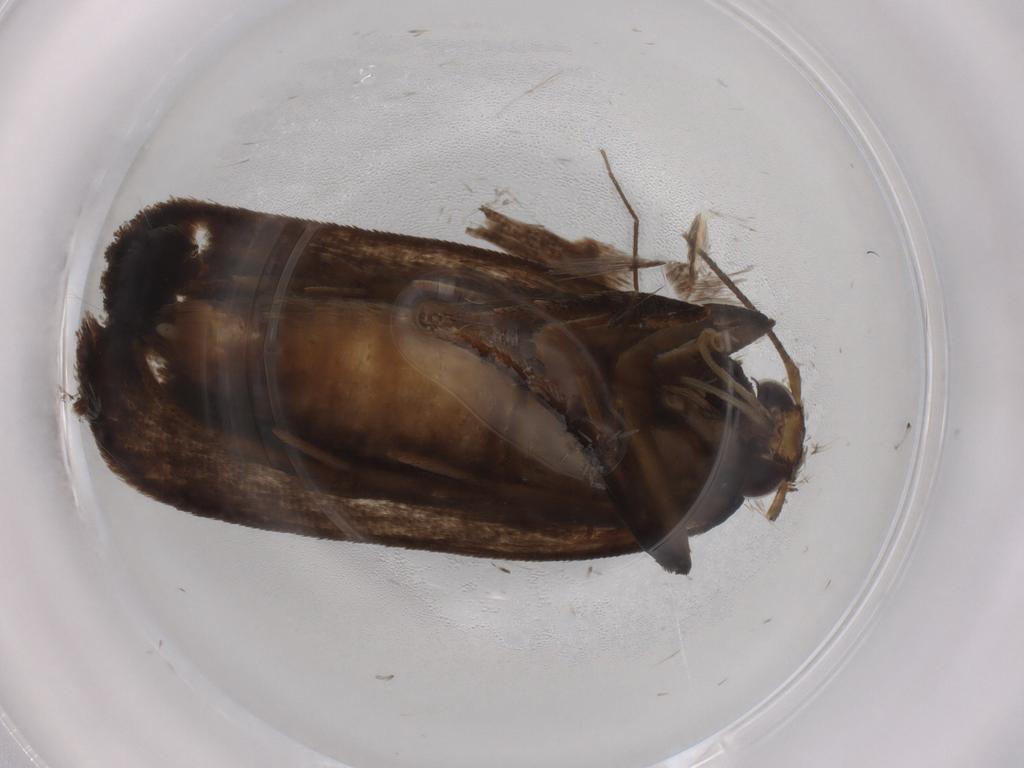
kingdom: Animalia
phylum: Arthropoda
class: Insecta
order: Lepidoptera
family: Gelechiidae
